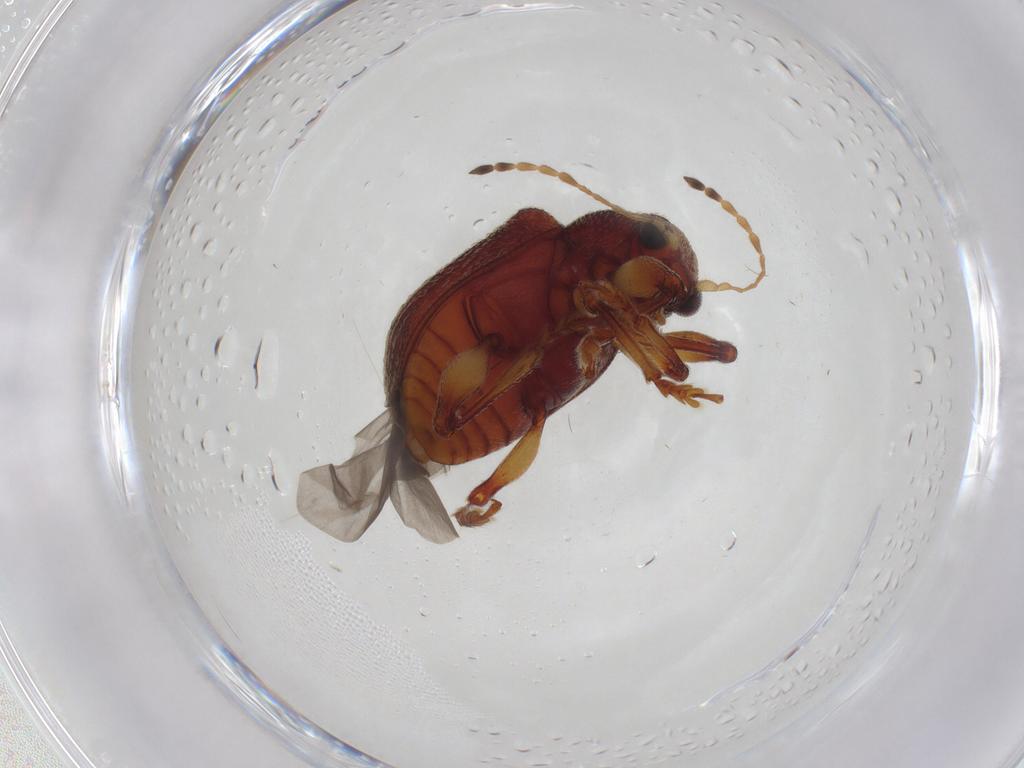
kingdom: Animalia
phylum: Arthropoda
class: Insecta
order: Coleoptera
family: Chrysomelidae
